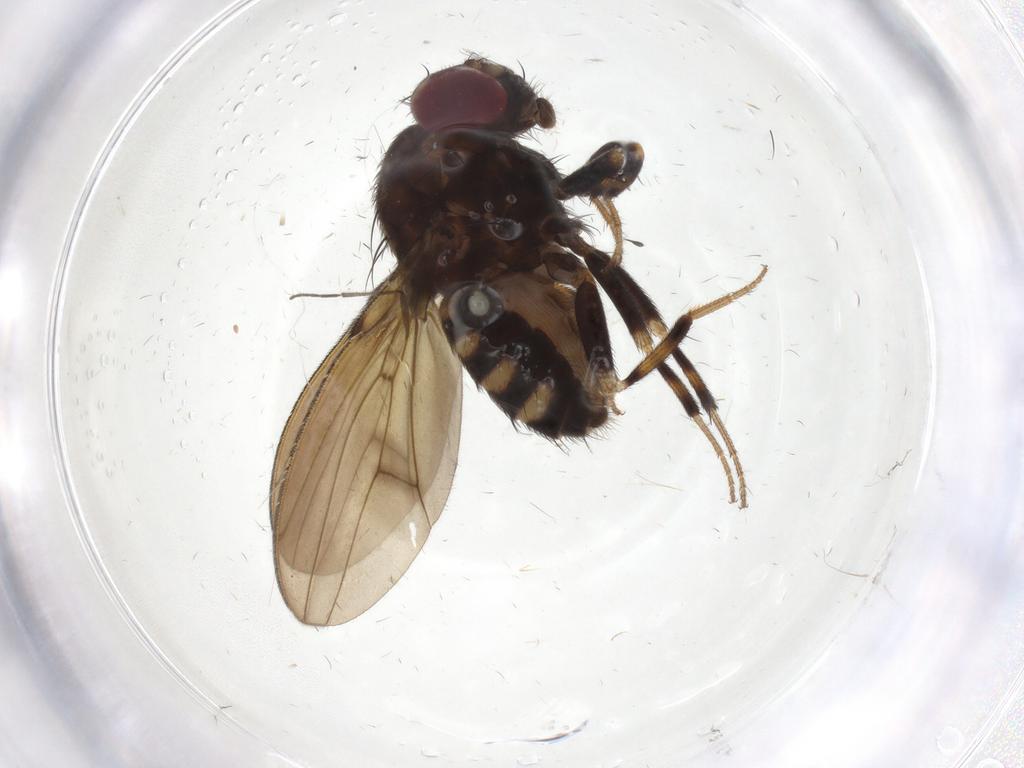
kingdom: Animalia
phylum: Arthropoda
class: Insecta
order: Diptera
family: Drosophilidae
